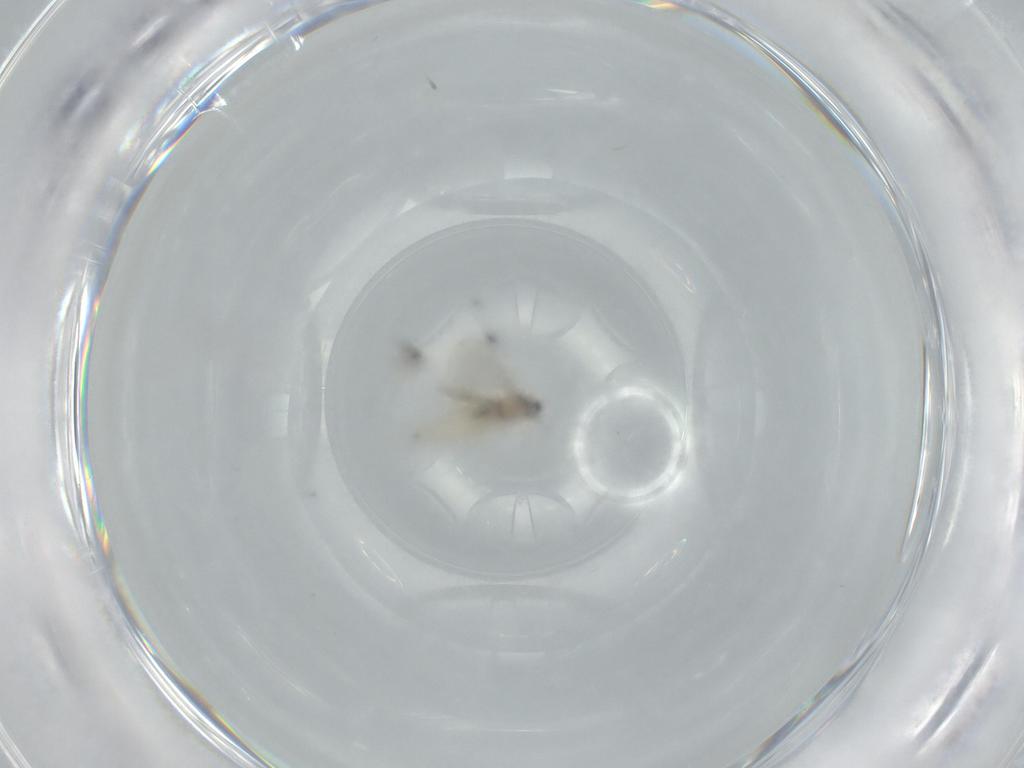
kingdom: Animalia
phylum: Arthropoda
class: Insecta
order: Diptera
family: Cecidomyiidae
